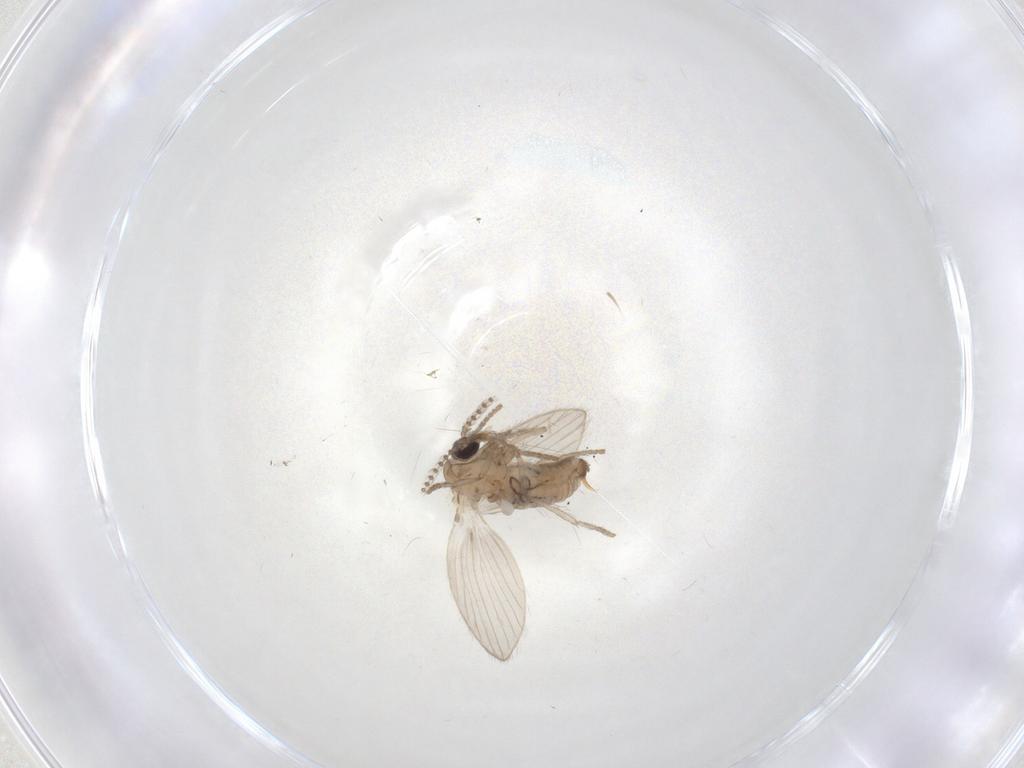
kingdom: Animalia
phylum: Arthropoda
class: Insecta
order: Diptera
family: Psychodidae
